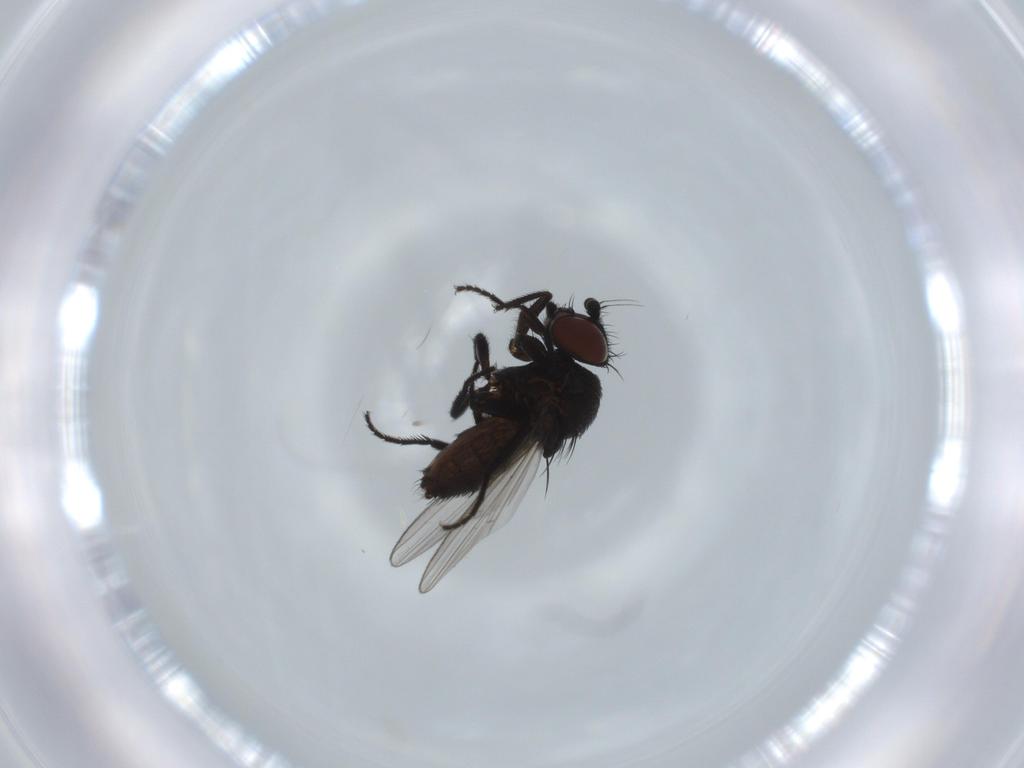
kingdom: Animalia
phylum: Arthropoda
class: Insecta
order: Diptera
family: Milichiidae
